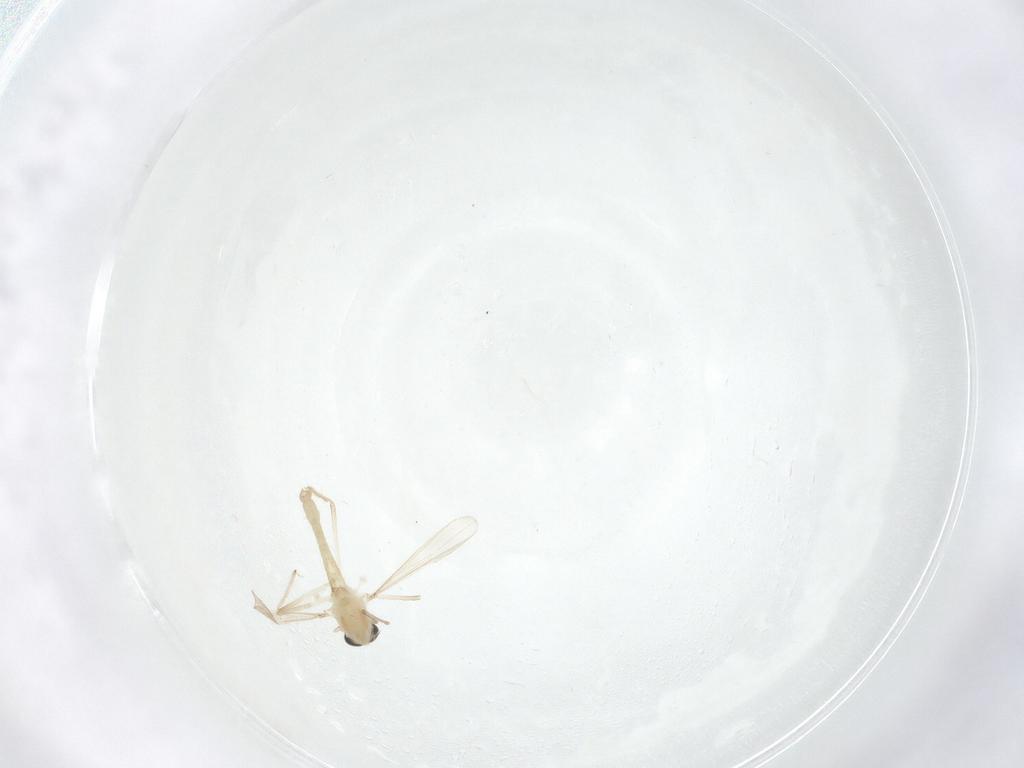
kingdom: Animalia
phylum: Arthropoda
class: Insecta
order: Diptera
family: Chironomidae
